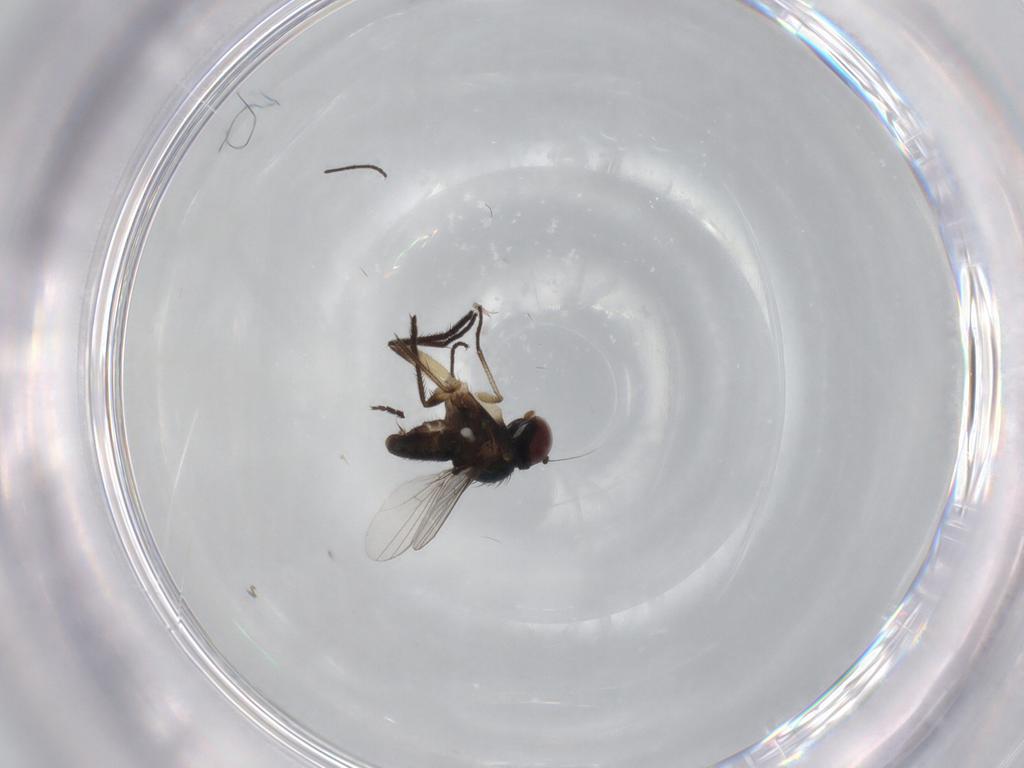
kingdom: Animalia
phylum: Arthropoda
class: Insecta
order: Diptera
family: Dolichopodidae
